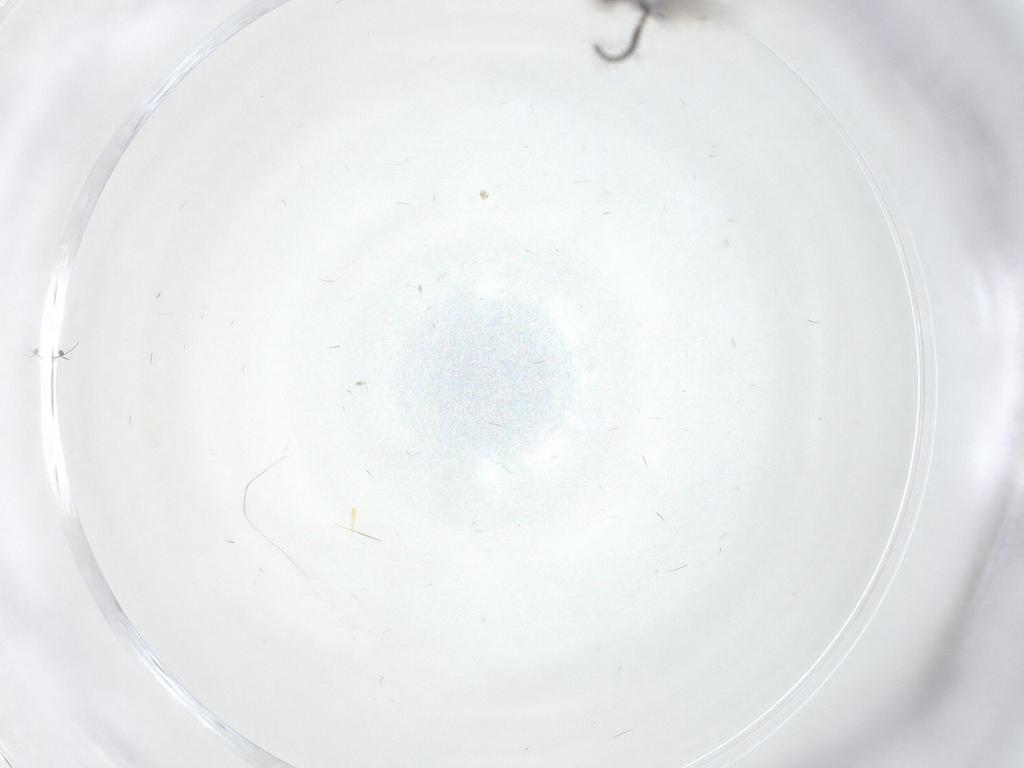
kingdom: Animalia
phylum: Arthropoda
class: Insecta
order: Hymenoptera
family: Bethylidae
